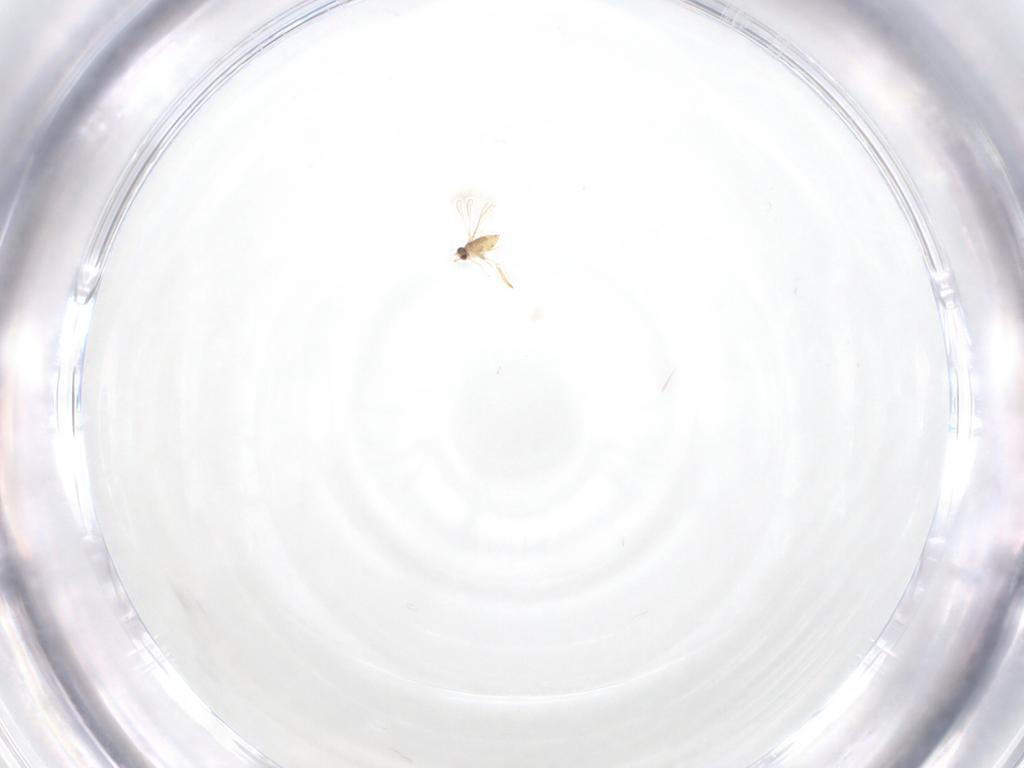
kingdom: Animalia
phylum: Arthropoda
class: Insecta
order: Hymenoptera
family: Mymaridae
